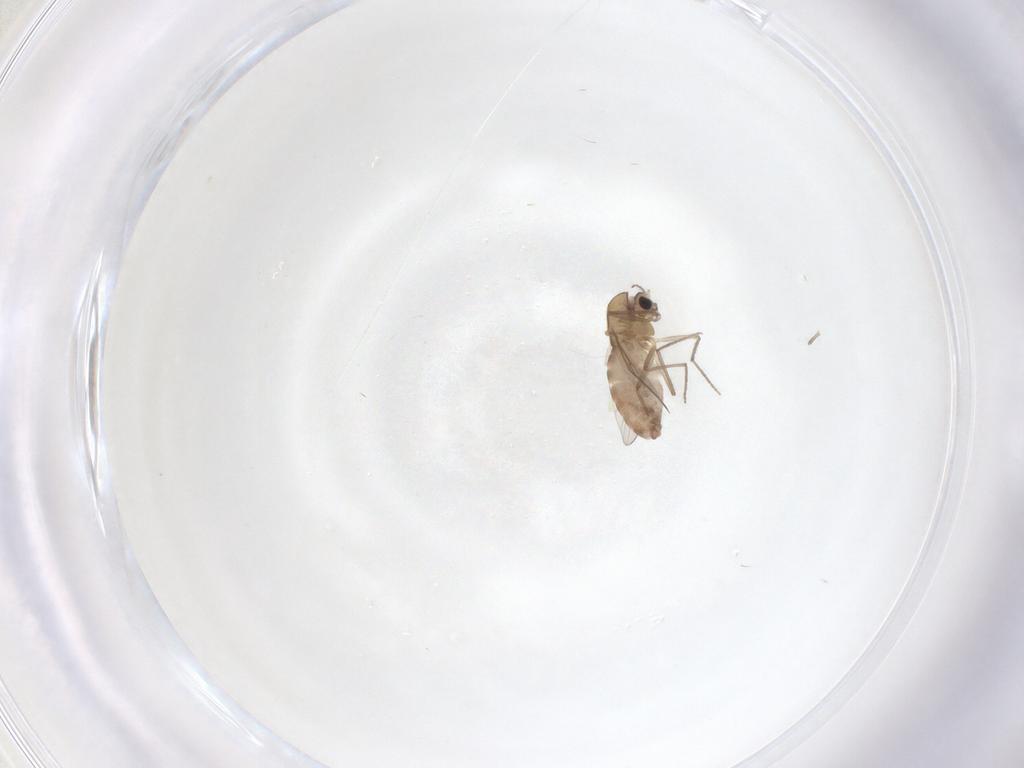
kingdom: Animalia
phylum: Arthropoda
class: Insecta
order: Diptera
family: Chironomidae
